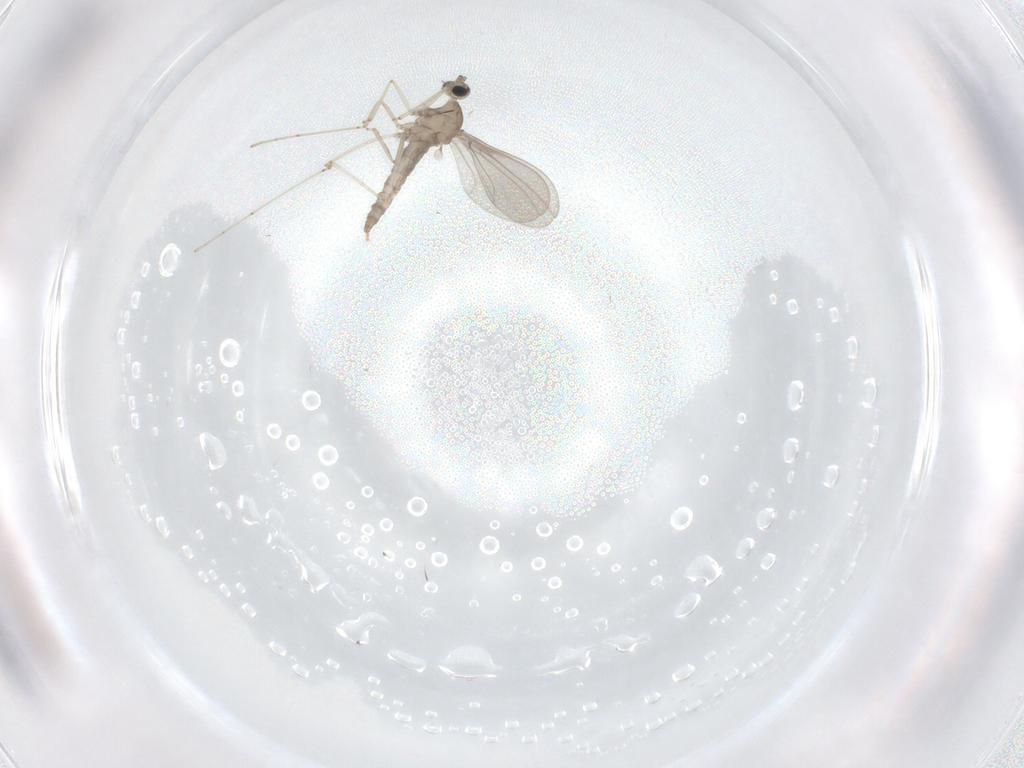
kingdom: Animalia
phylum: Arthropoda
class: Insecta
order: Diptera
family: Phoridae
